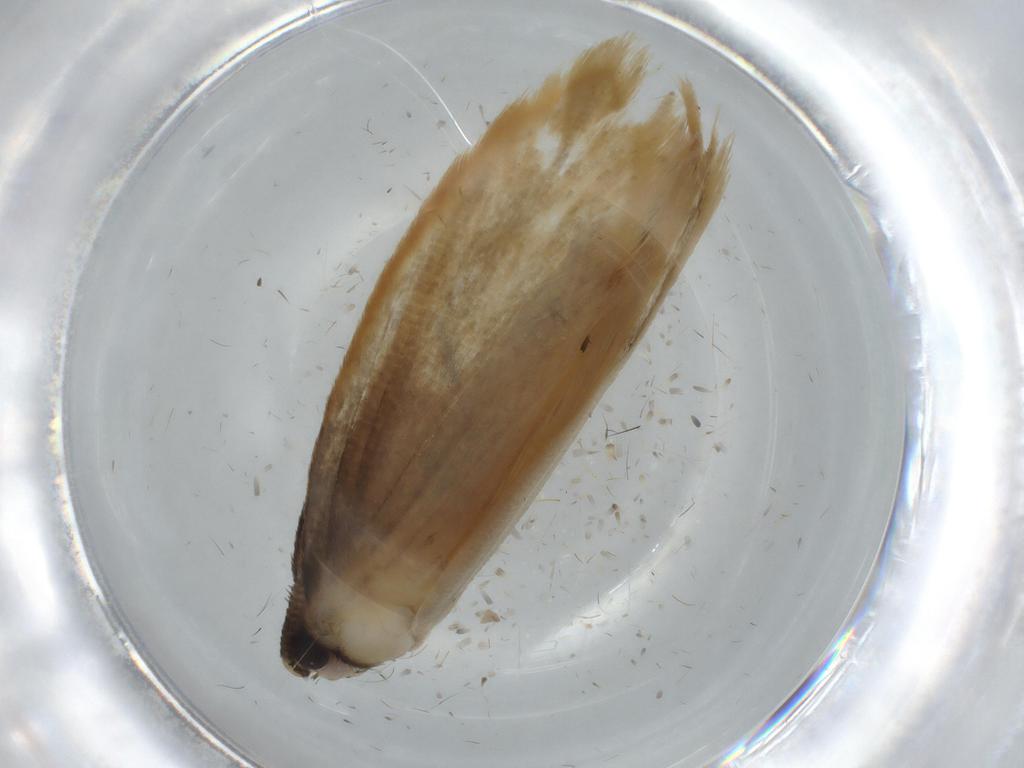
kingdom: Animalia
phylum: Arthropoda
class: Insecta
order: Lepidoptera
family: Tineidae
